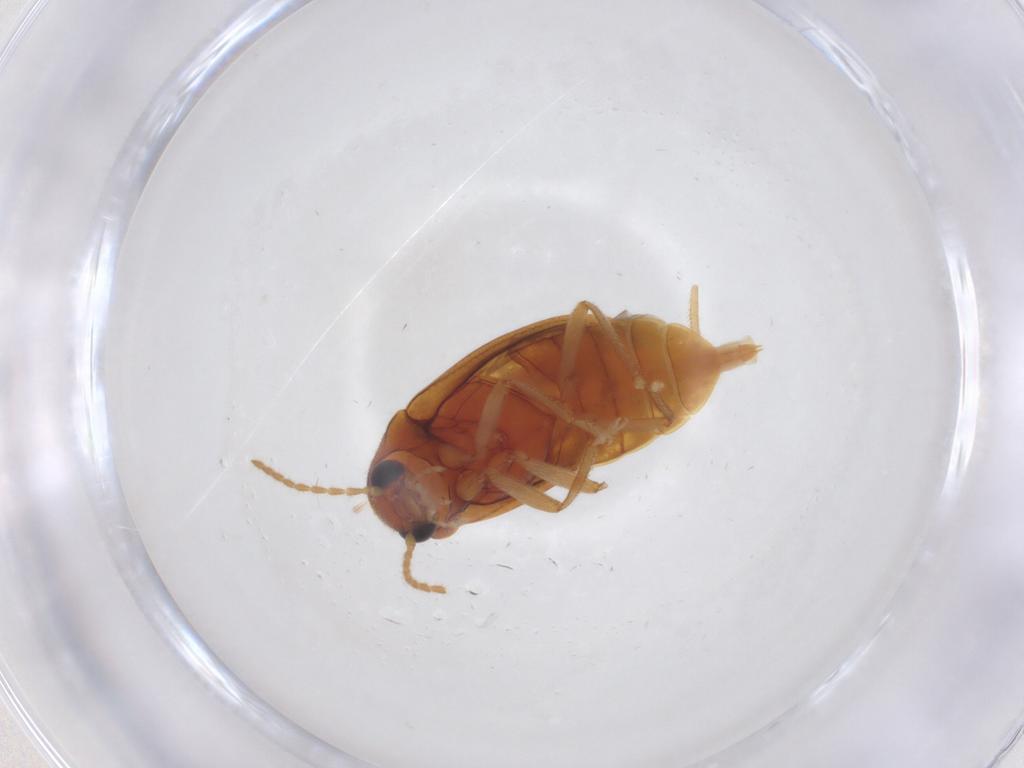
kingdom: Animalia
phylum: Arthropoda
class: Insecta
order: Coleoptera
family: Ptilodactylidae
